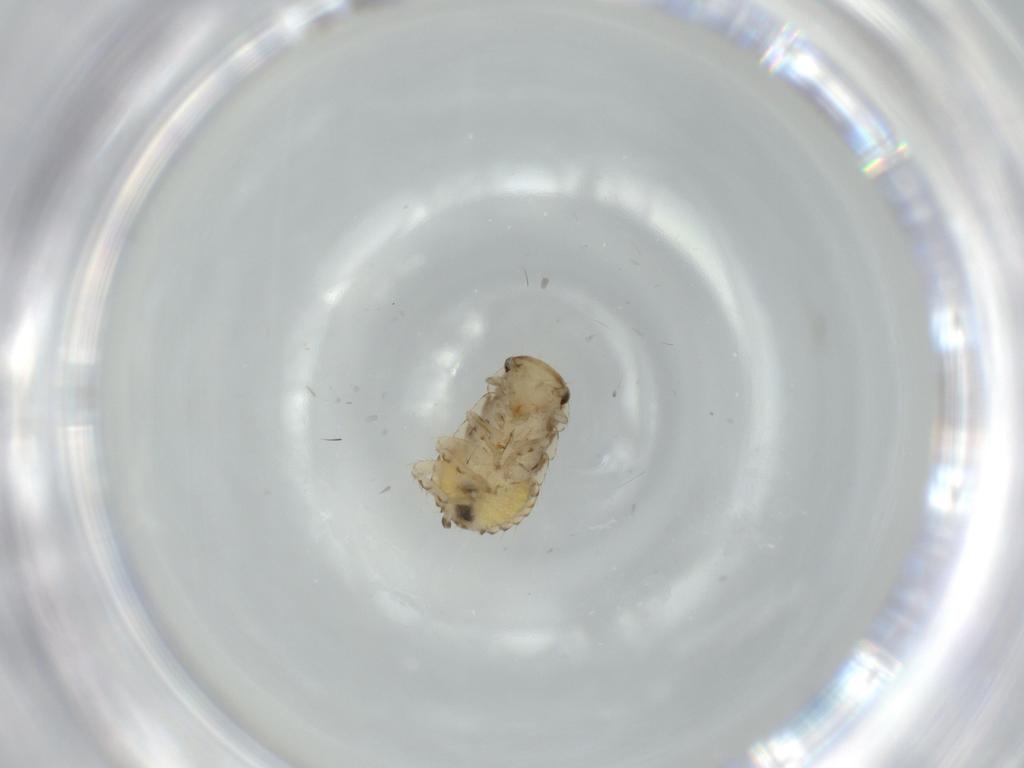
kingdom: Animalia
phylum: Arthropoda
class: Insecta
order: Blattodea
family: Ectobiidae
